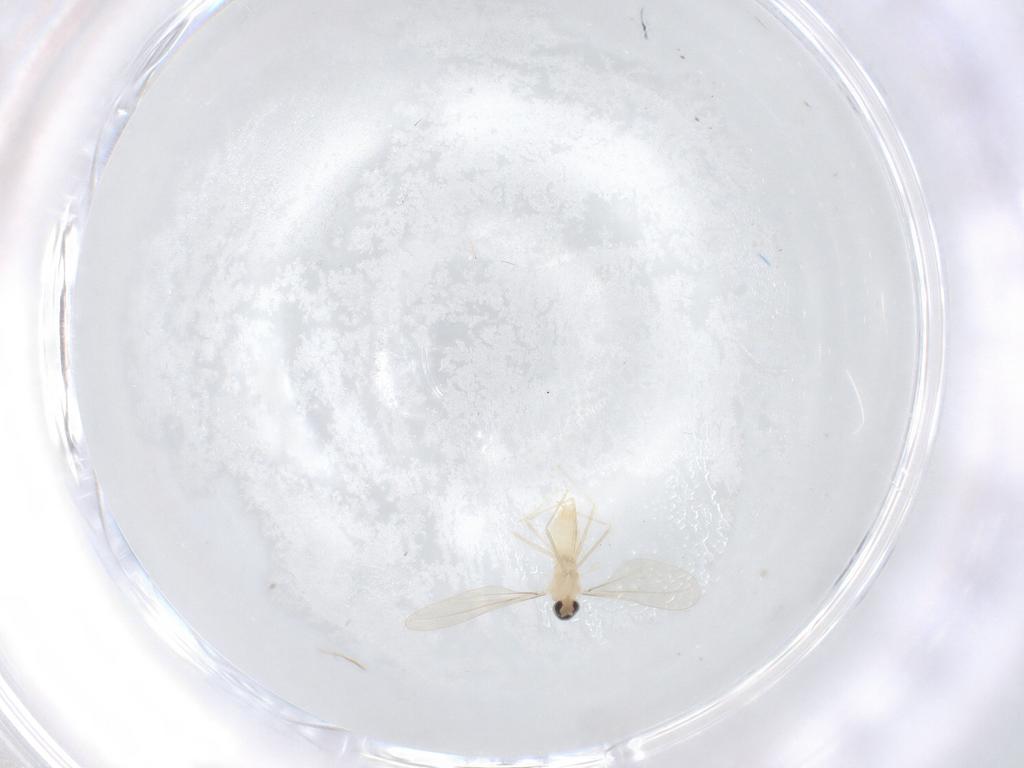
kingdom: Animalia
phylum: Arthropoda
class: Insecta
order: Diptera
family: Cecidomyiidae
